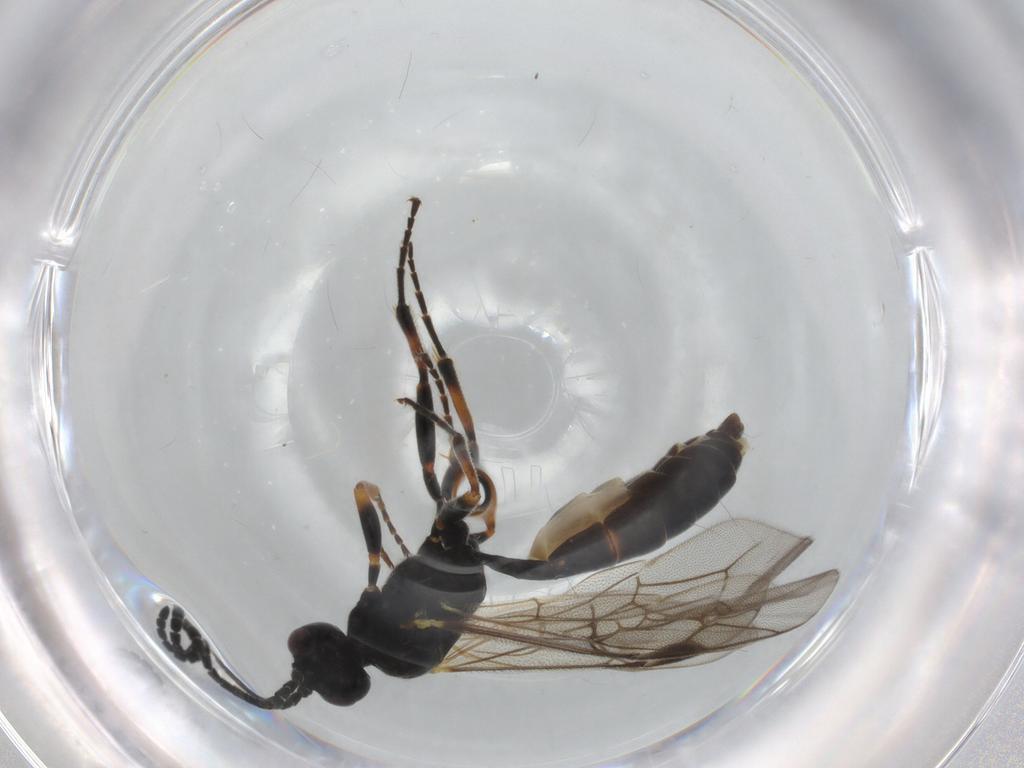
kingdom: Animalia
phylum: Arthropoda
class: Insecta
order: Hymenoptera
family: Ichneumonidae
